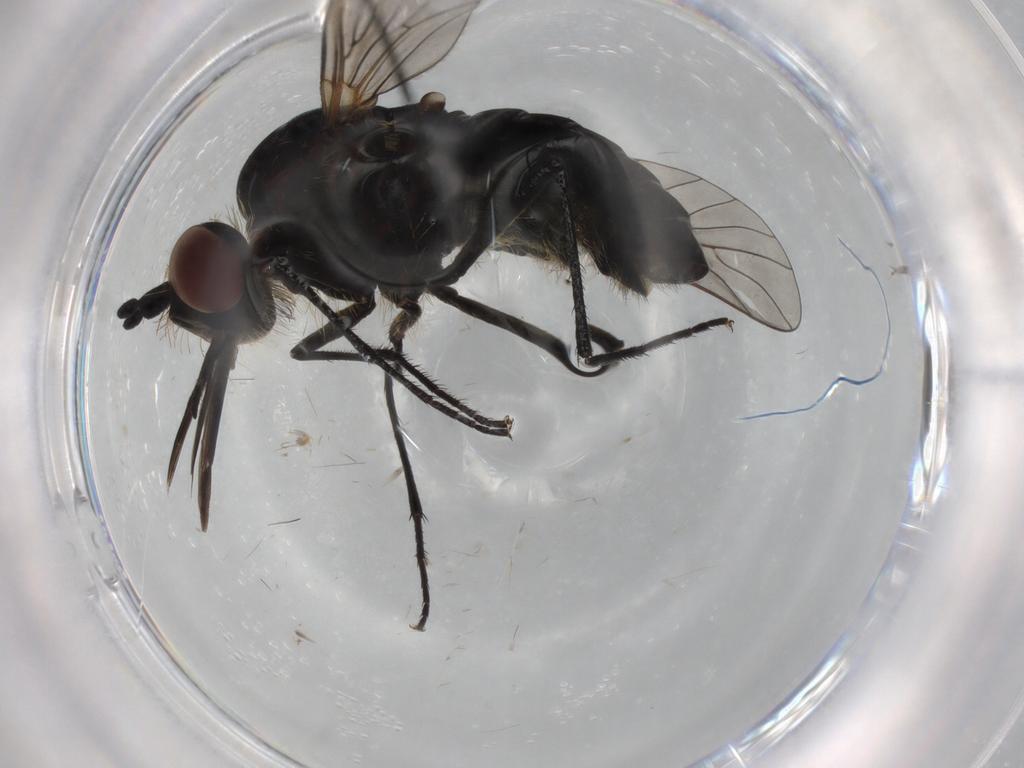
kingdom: Animalia
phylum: Arthropoda
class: Insecta
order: Diptera
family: Bombyliidae
